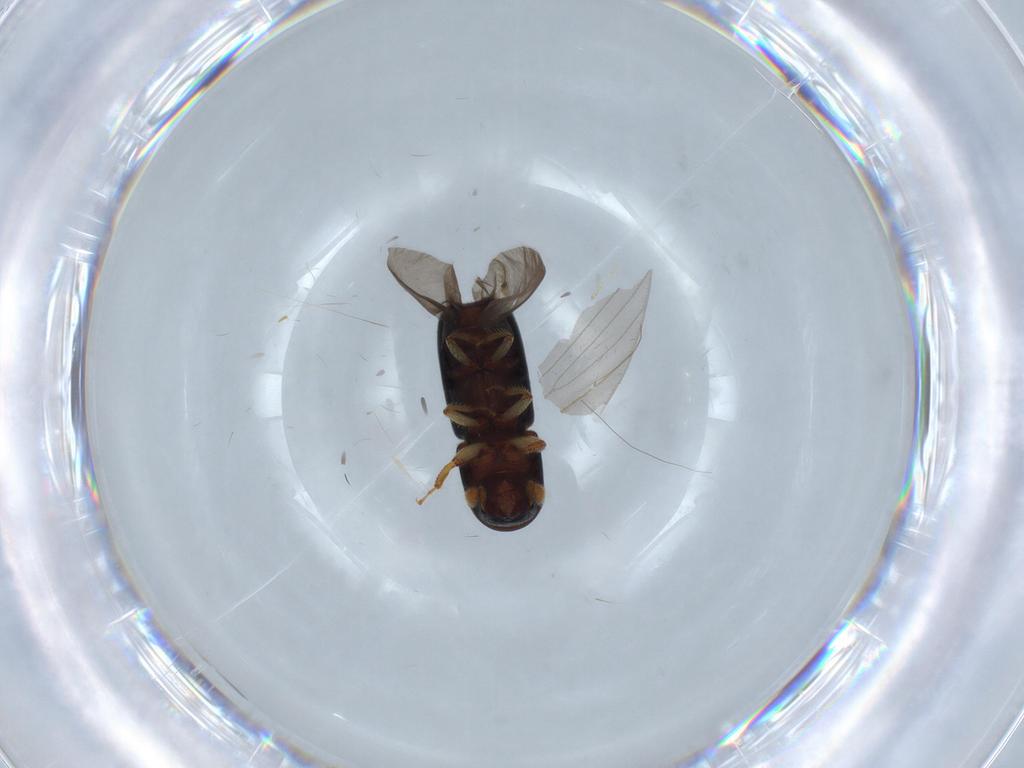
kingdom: Animalia
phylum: Arthropoda
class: Insecta
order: Coleoptera
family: Curculionidae
